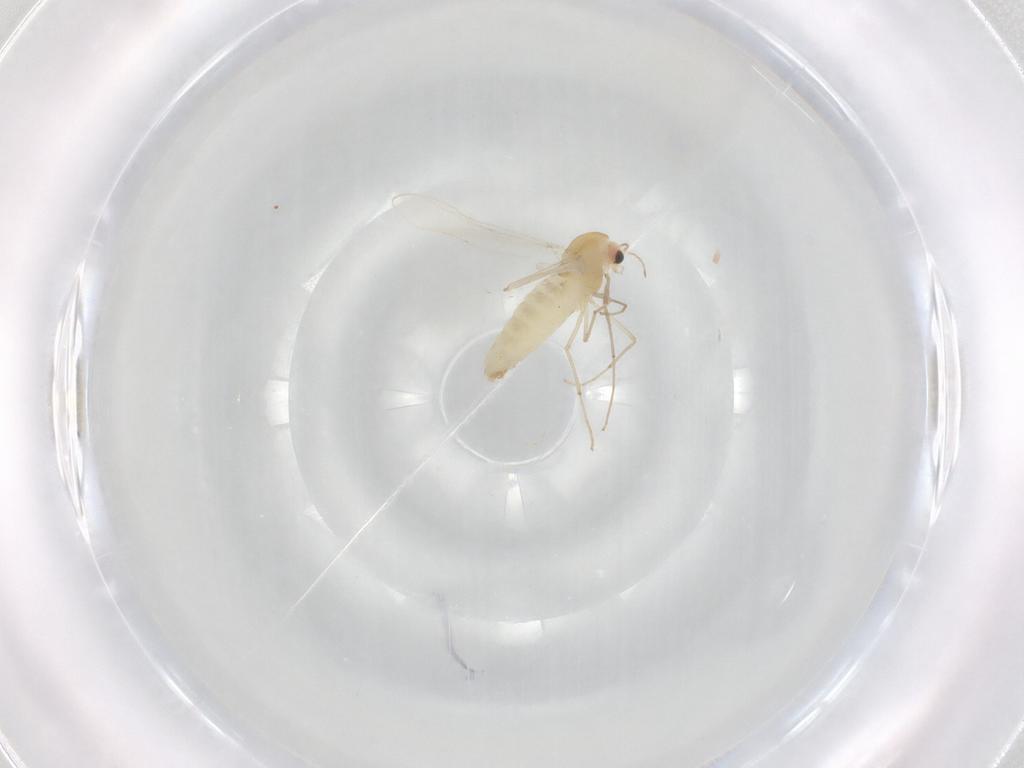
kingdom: Animalia
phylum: Arthropoda
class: Insecta
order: Diptera
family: Chironomidae
